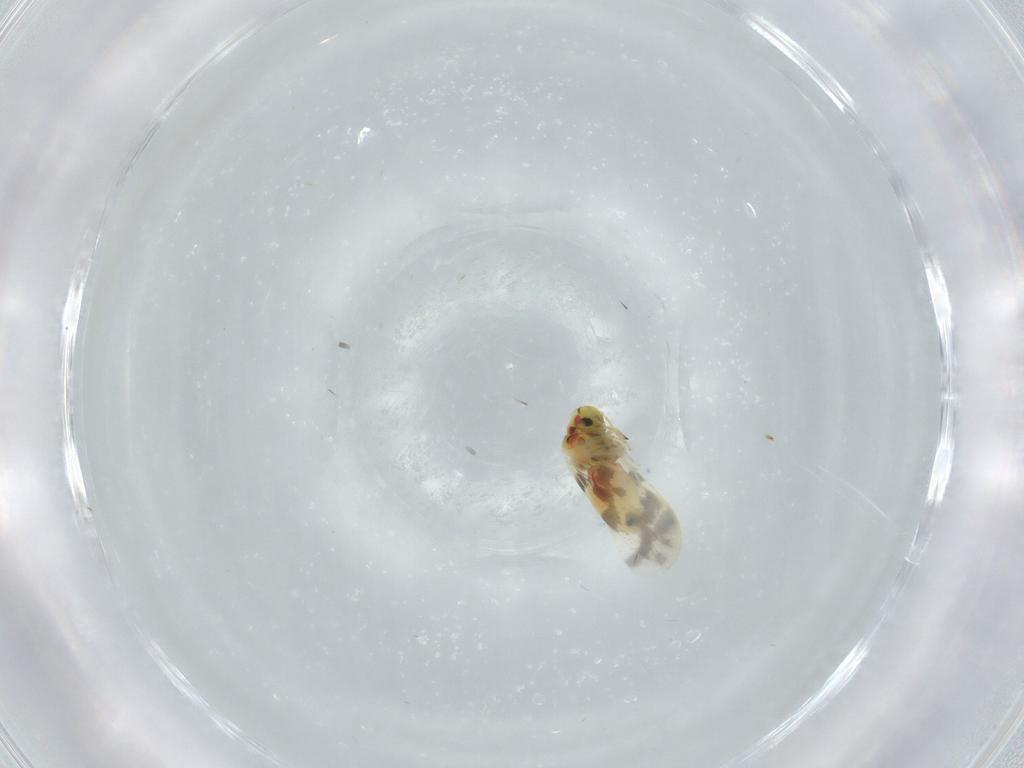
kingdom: Animalia
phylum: Arthropoda
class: Insecta
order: Hemiptera
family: Aleyrodidae
